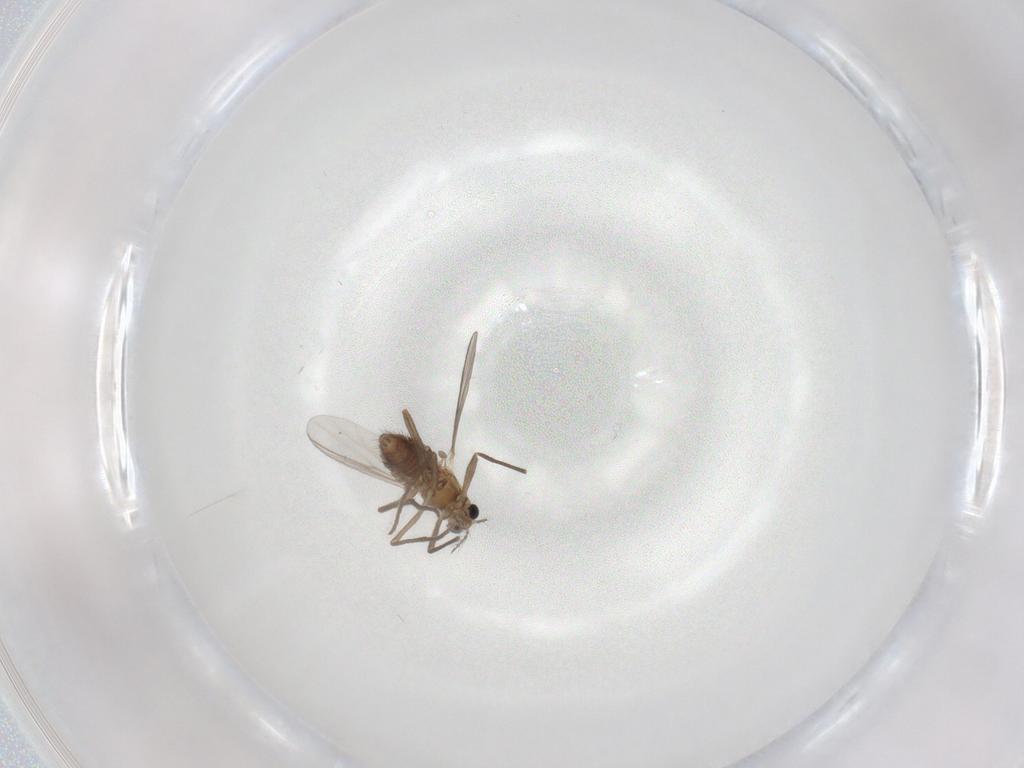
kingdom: Animalia
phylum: Arthropoda
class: Insecta
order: Diptera
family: Chironomidae
